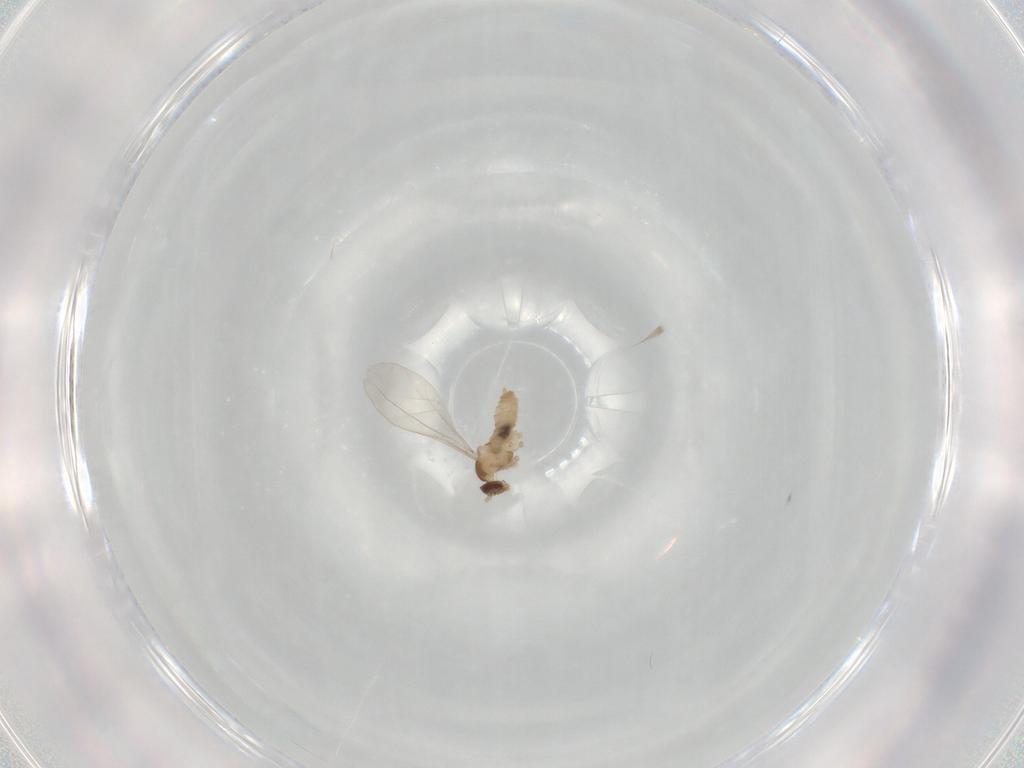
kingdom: Animalia
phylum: Arthropoda
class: Insecta
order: Diptera
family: Cecidomyiidae
